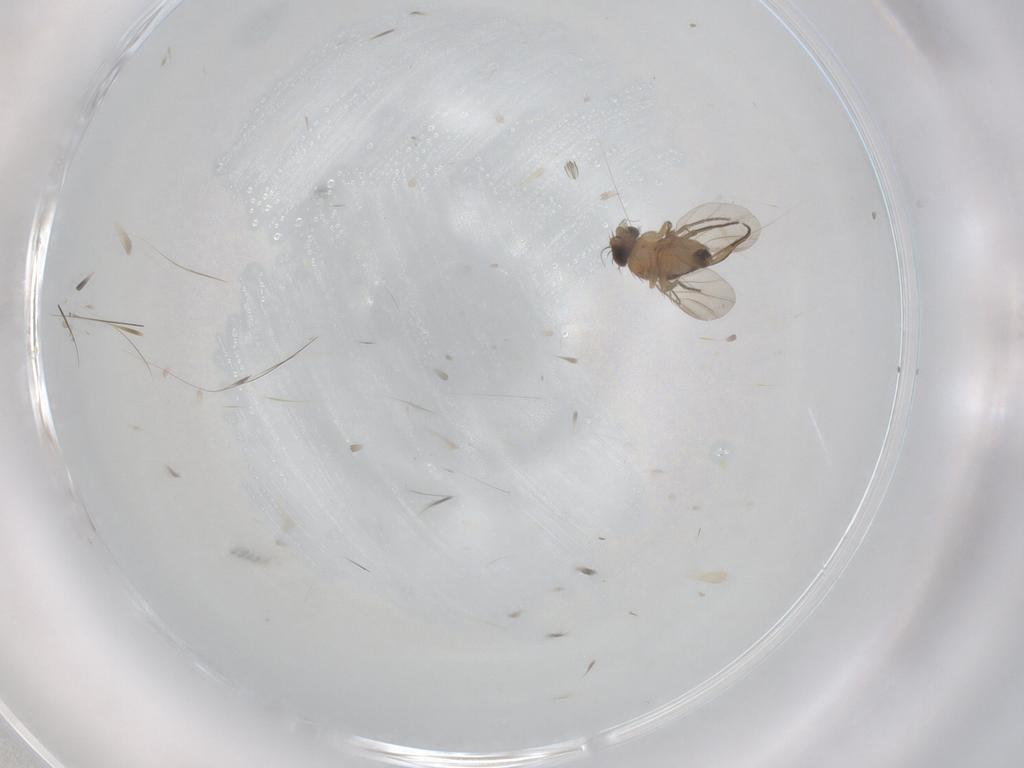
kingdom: Animalia
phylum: Arthropoda
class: Insecta
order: Diptera
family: Phoridae
